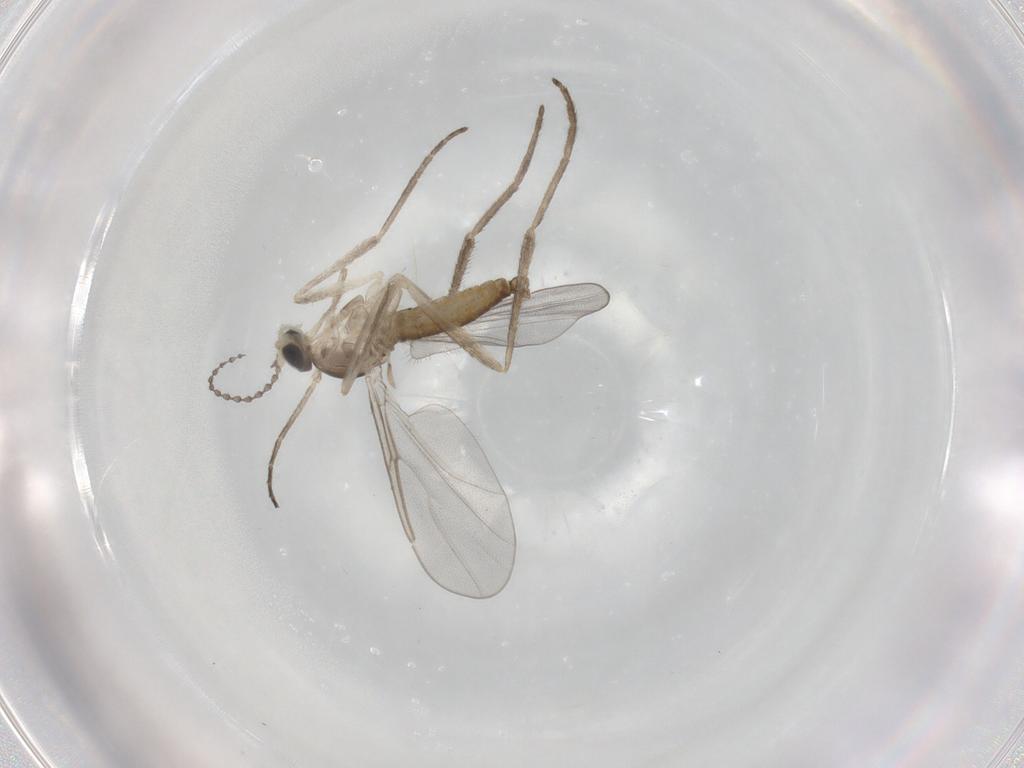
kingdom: Animalia
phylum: Arthropoda
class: Insecta
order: Diptera
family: Cecidomyiidae
